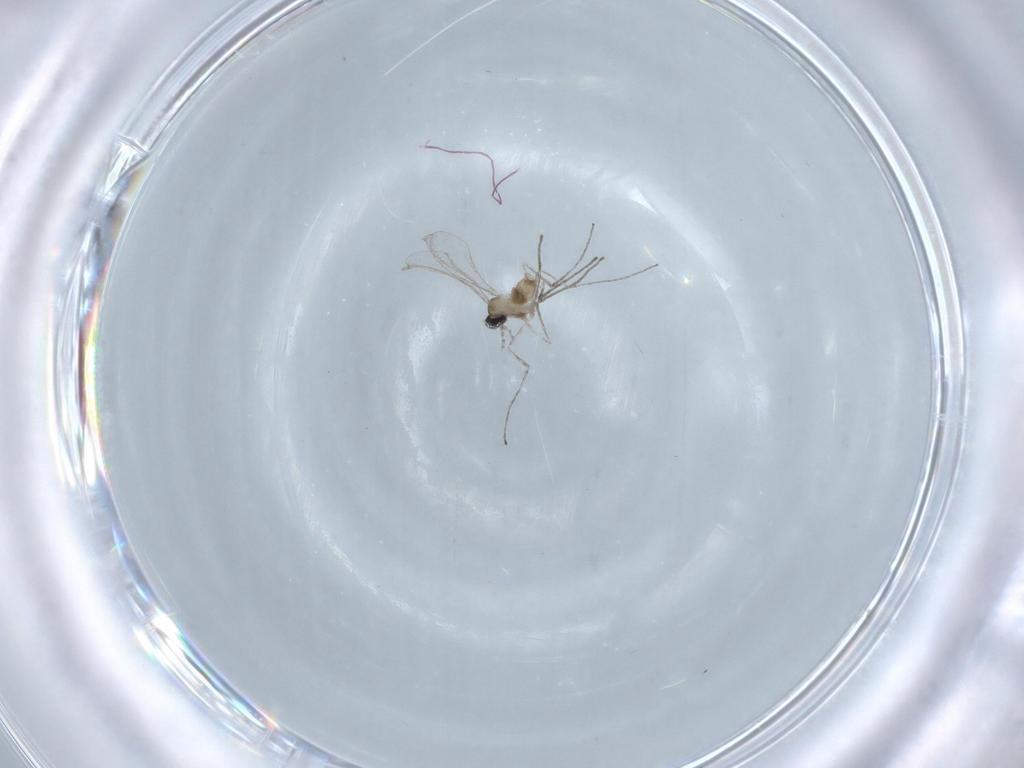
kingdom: Animalia
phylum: Arthropoda
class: Insecta
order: Diptera
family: Cecidomyiidae
